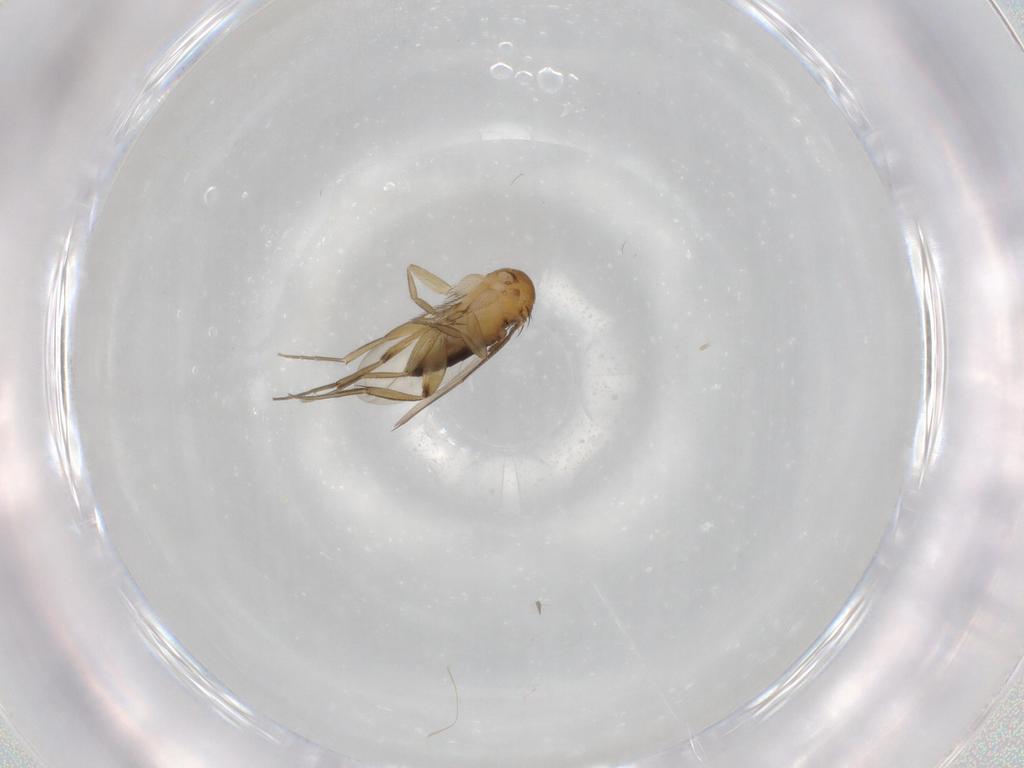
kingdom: Animalia
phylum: Arthropoda
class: Insecta
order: Diptera
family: Phoridae
